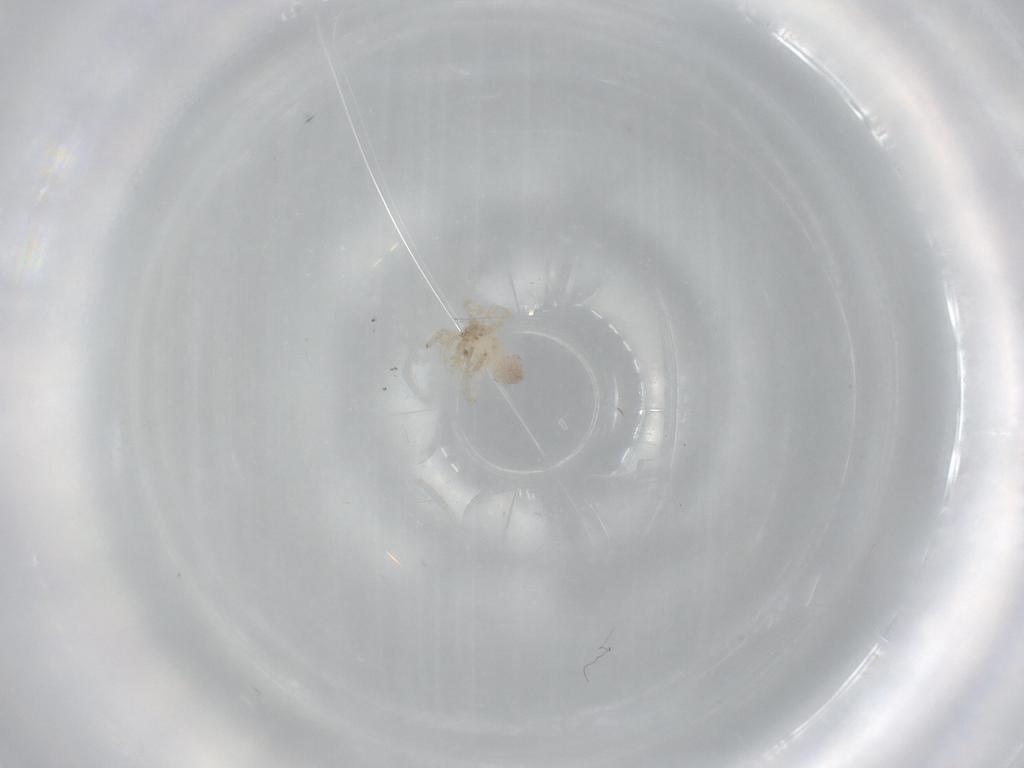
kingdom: Animalia
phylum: Arthropoda
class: Arachnida
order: Araneae
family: Oonopidae
